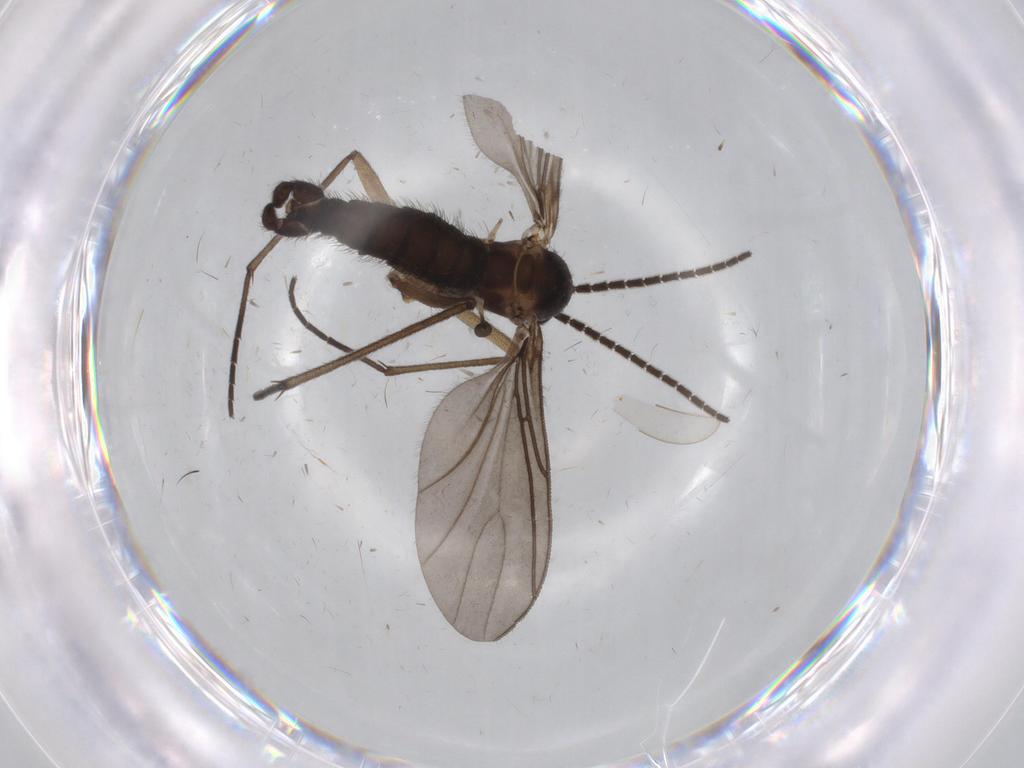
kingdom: Animalia
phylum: Arthropoda
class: Insecta
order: Diptera
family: Sciaridae
